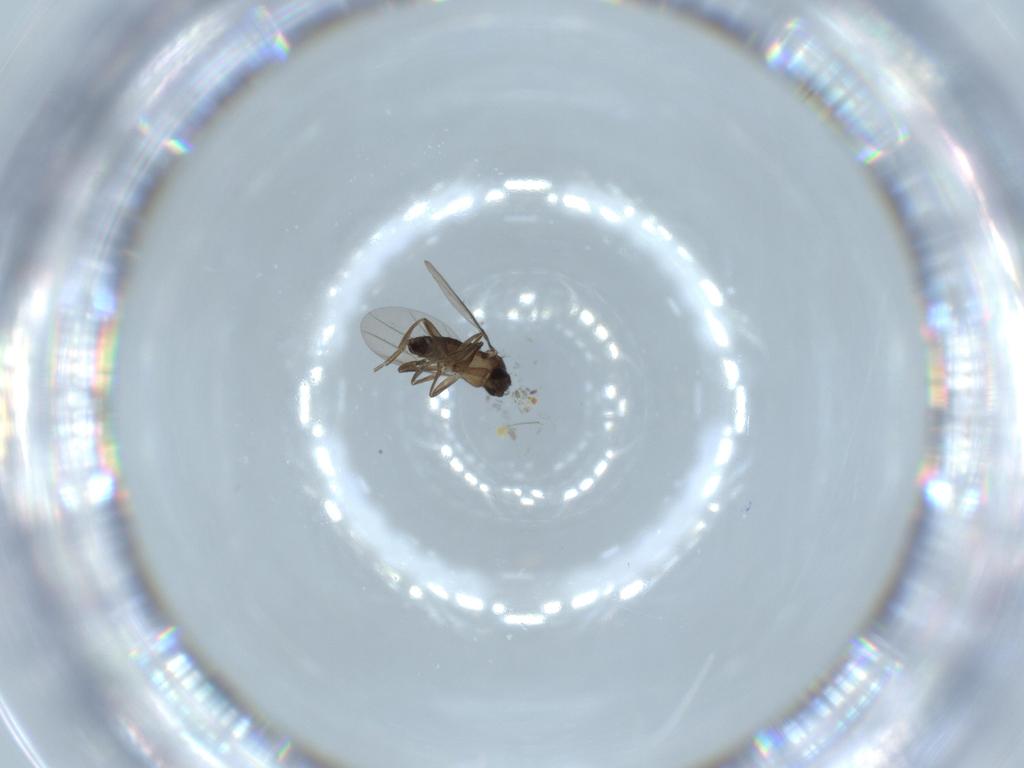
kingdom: Animalia
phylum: Arthropoda
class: Insecta
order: Diptera
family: Phoridae
